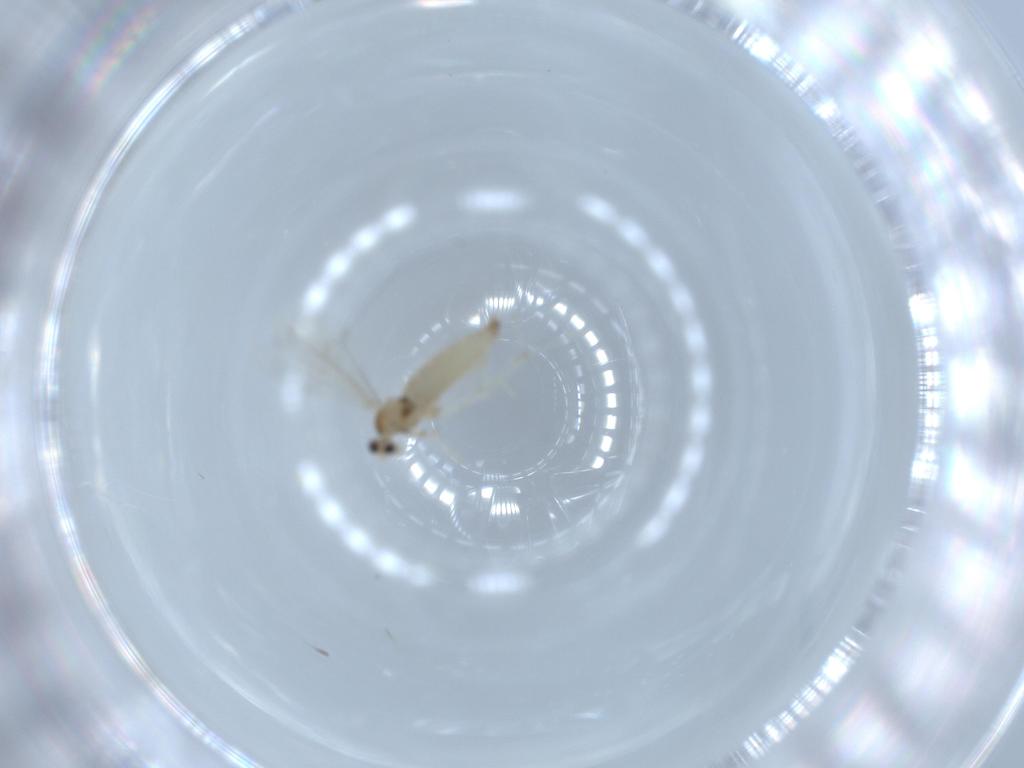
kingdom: Animalia
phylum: Arthropoda
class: Insecta
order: Diptera
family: Cecidomyiidae
